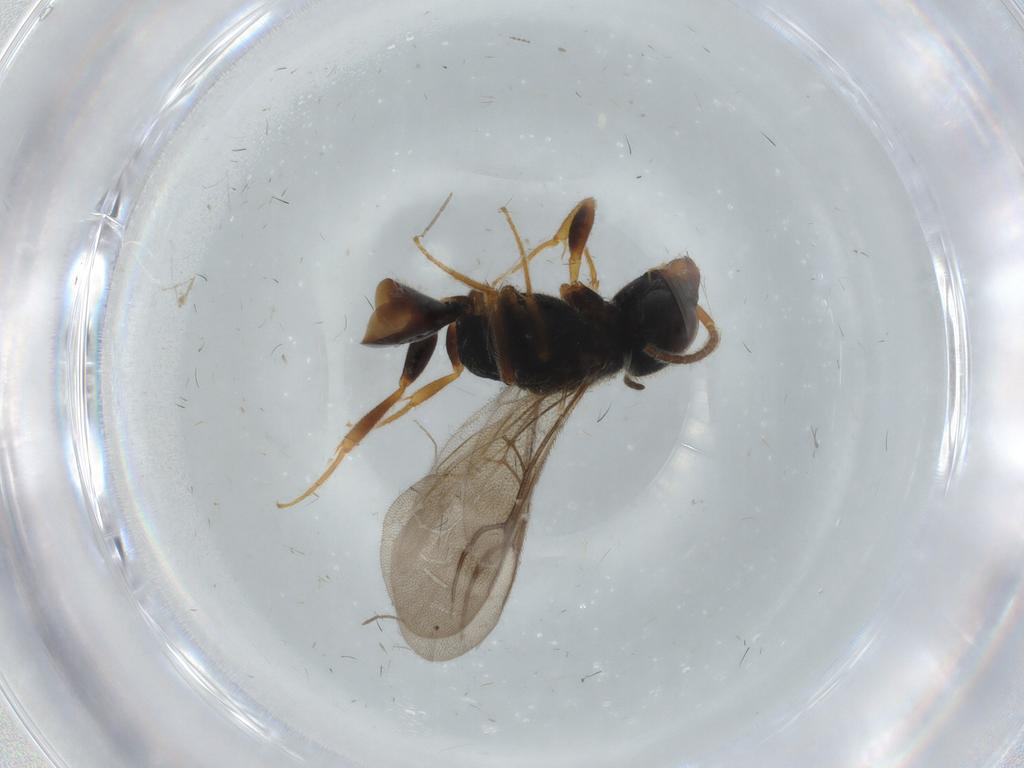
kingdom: Animalia
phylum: Arthropoda
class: Insecta
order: Hymenoptera
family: Bethylidae
